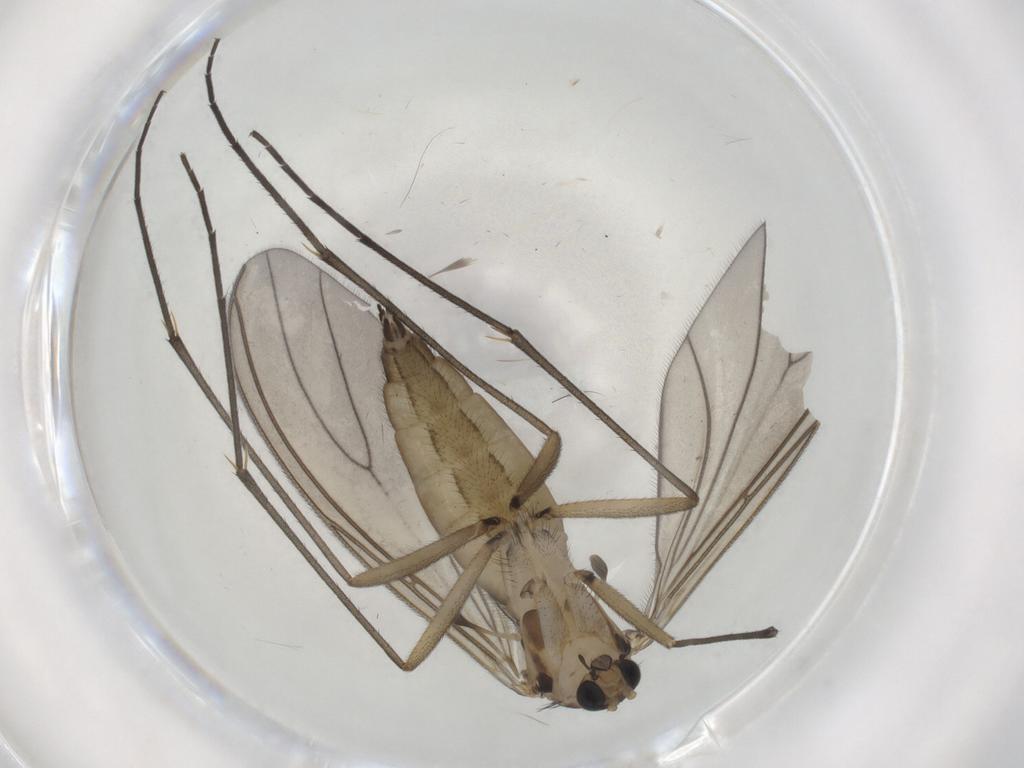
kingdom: Animalia
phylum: Arthropoda
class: Insecta
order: Diptera
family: Sciaridae
